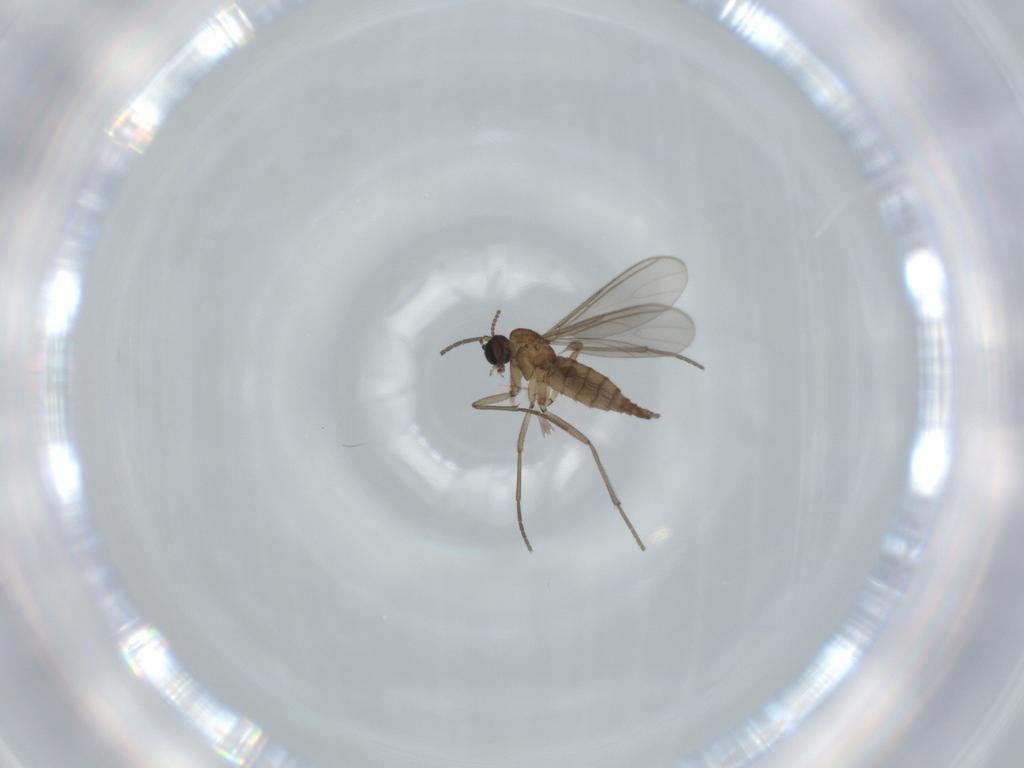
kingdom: Animalia
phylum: Arthropoda
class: Insecta
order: Diptera
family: Sciaridae
